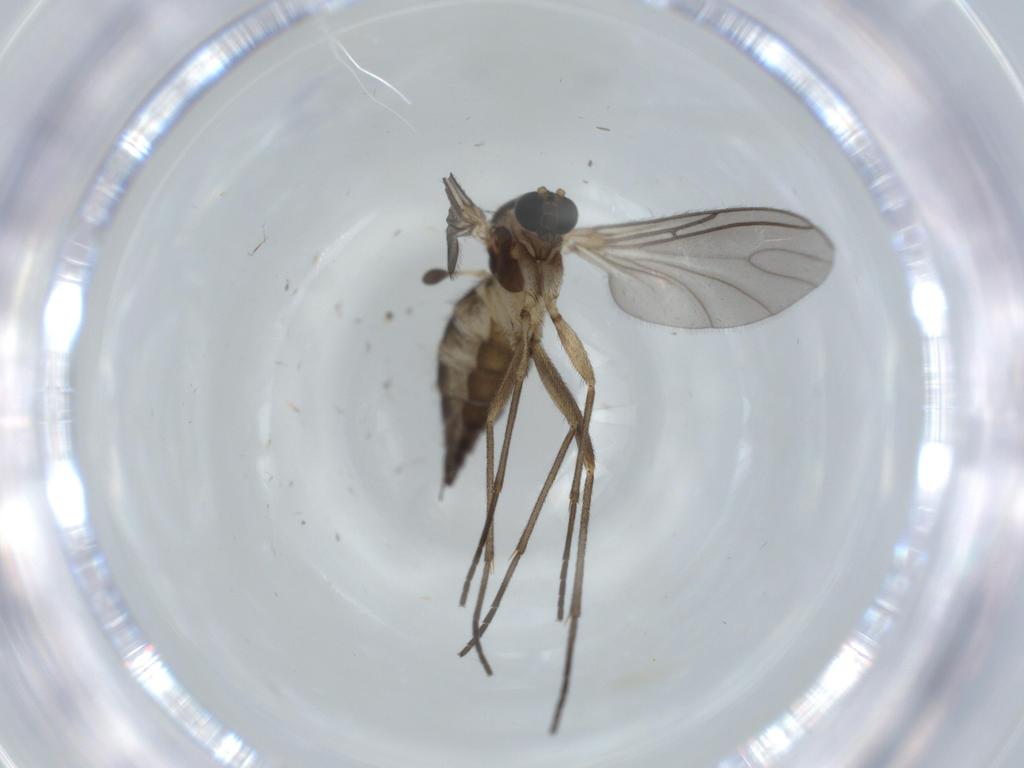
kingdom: Animalia
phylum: Arthropoda
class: Insecta
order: Diptera
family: Sciaridae
